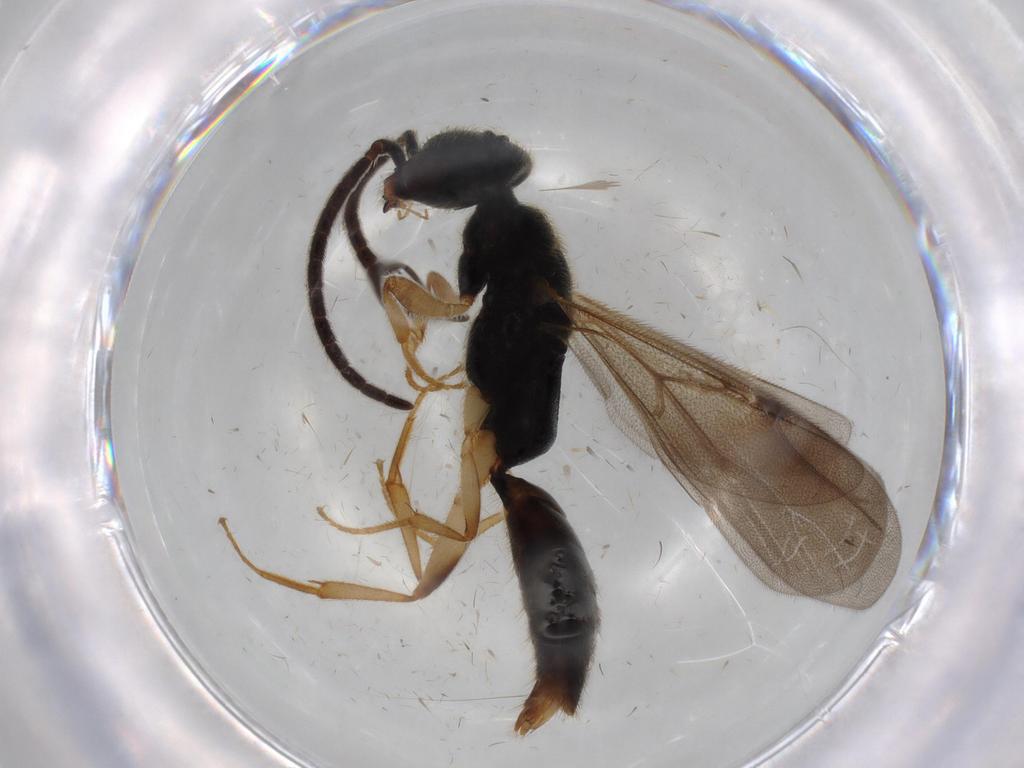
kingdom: Animalia
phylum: Arthropoda
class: Insecta
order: Hymenoptera
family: Bethylidae
